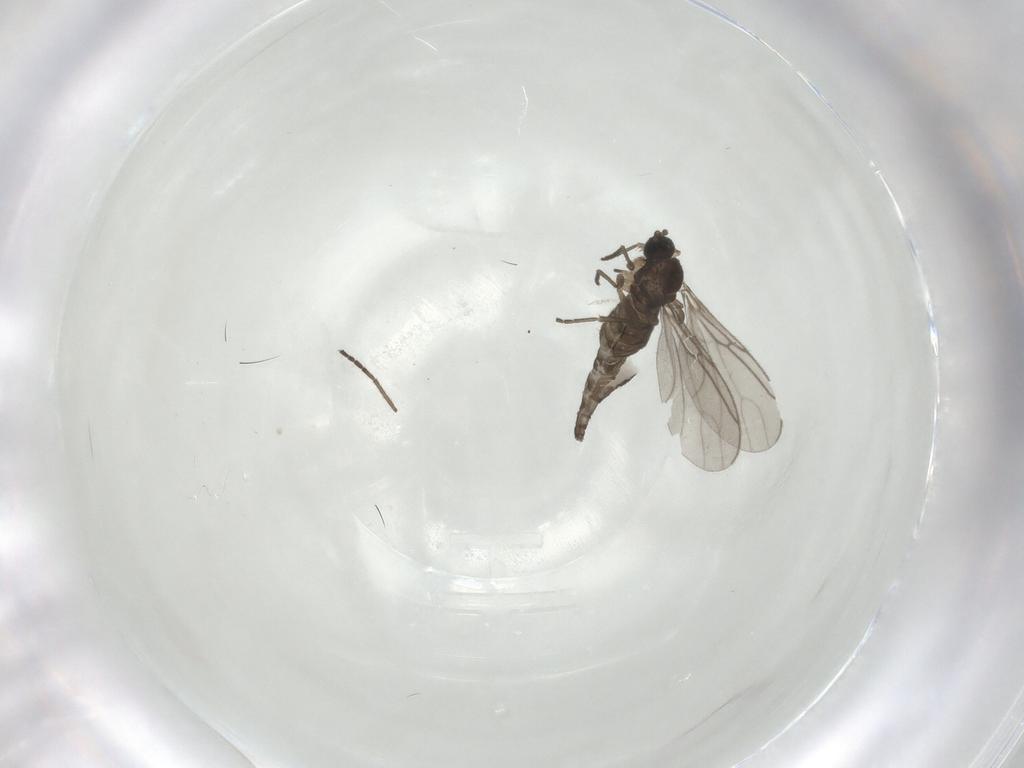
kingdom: Animalia
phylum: Arthropoda
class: Insecta
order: Diptera
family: Sciaridae
